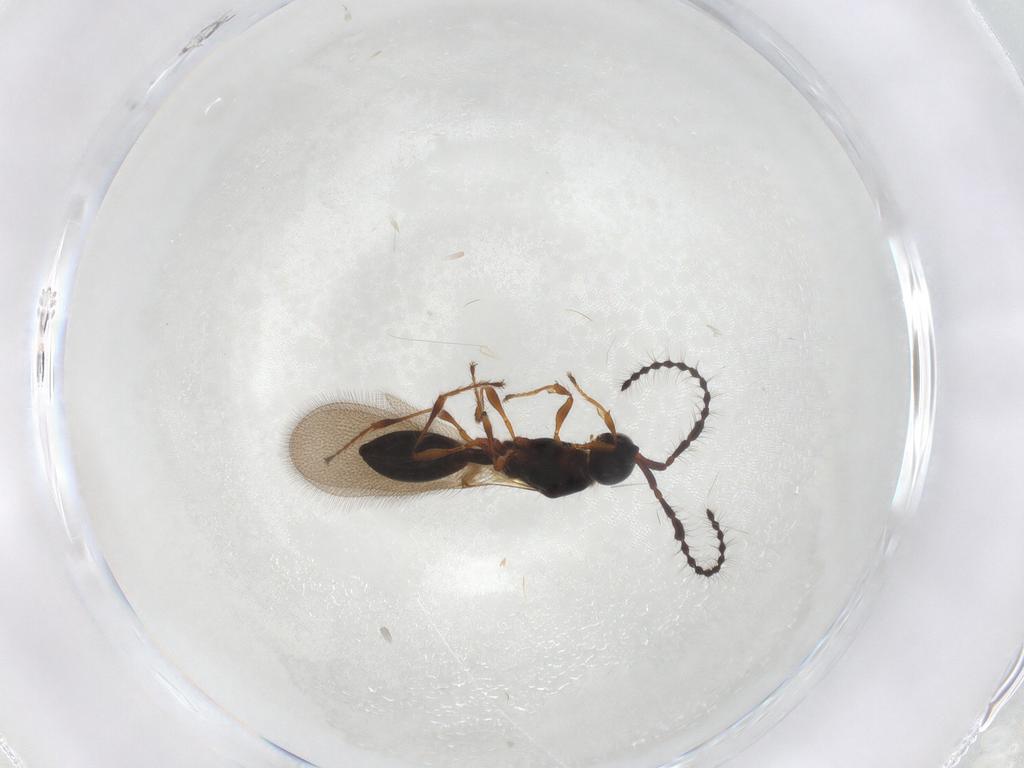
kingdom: Animalia
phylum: Arthropoda
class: Insecta
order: Hymenoptera
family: Diapriidae
